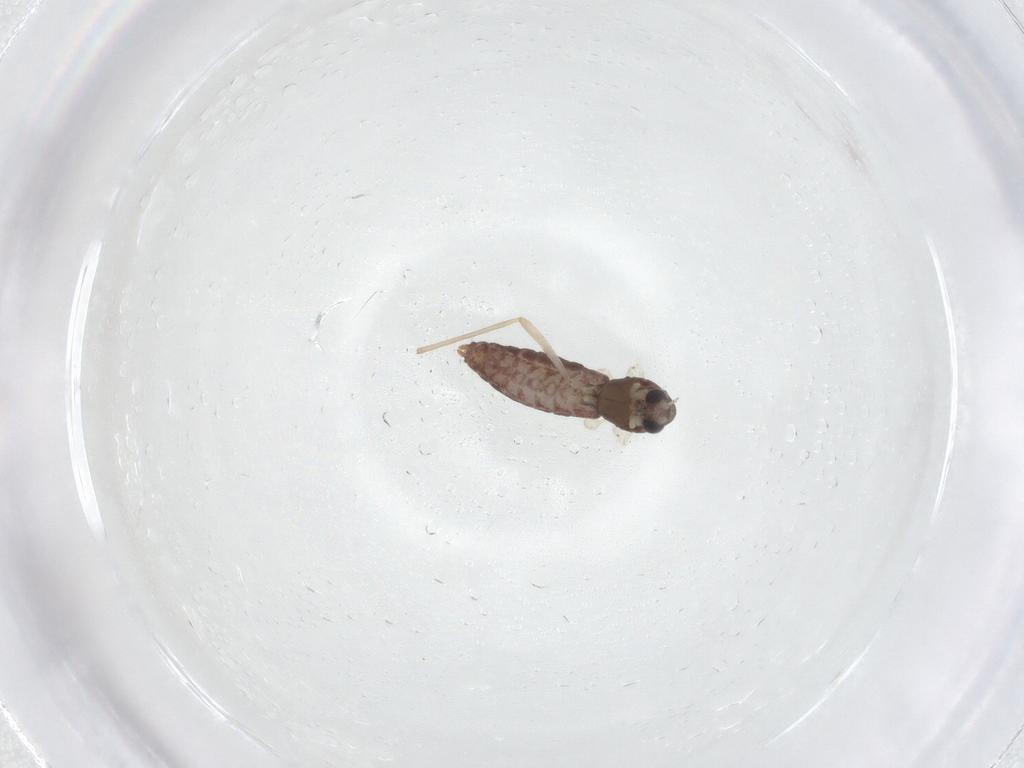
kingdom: Animalia
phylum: Arthropoda
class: Insecta
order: Diptera
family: Chironomidae
